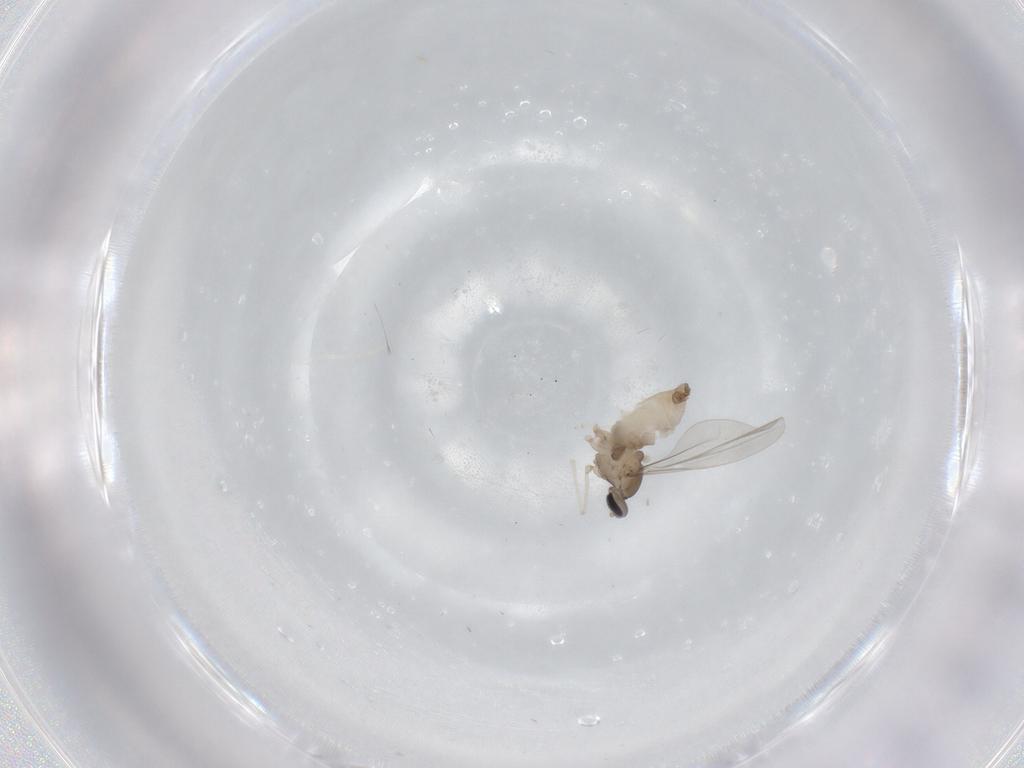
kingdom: Animalia
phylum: Arthropoda
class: Insecta
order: Diptera
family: Cecidomyiidae
